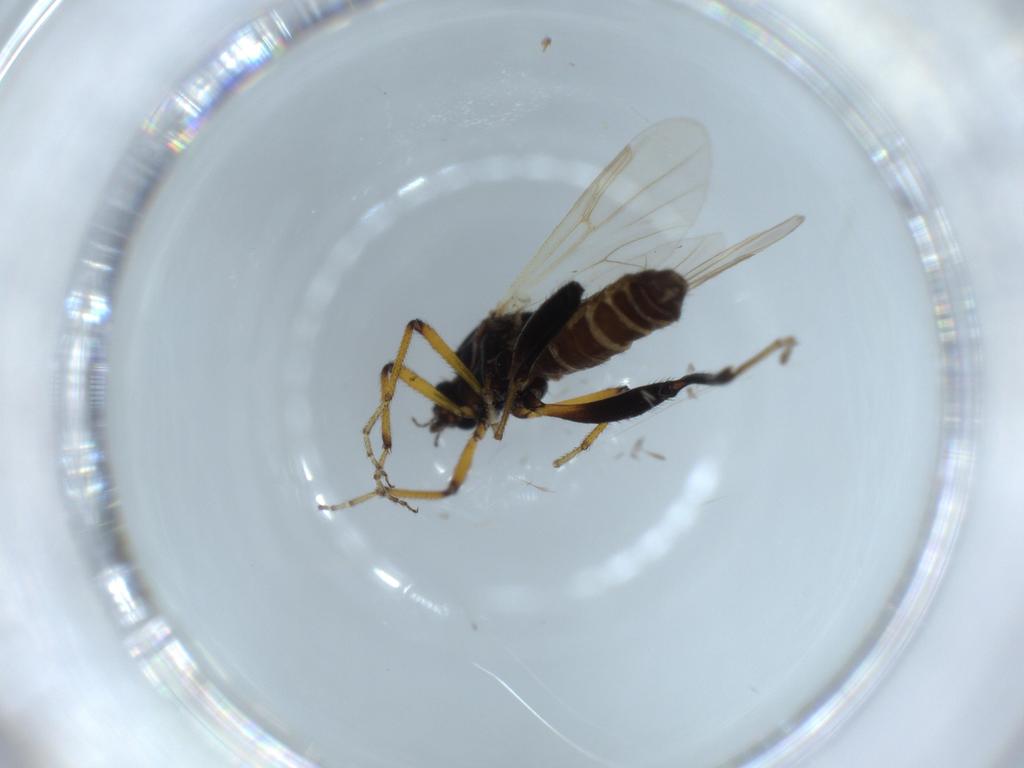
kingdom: Animalia
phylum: Arthropoda
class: Insecta
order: Diptera
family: Ceratopogonidae
